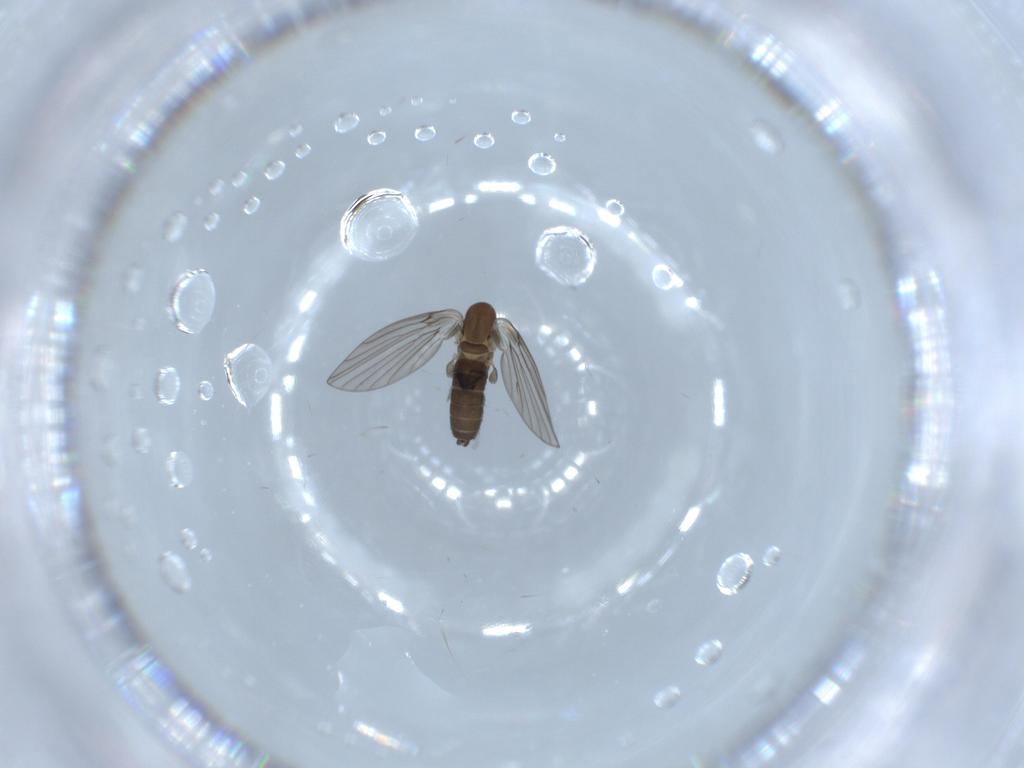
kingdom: Animalia
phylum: Arthropoda
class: Insecta
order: Diptera
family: Psychodidae
